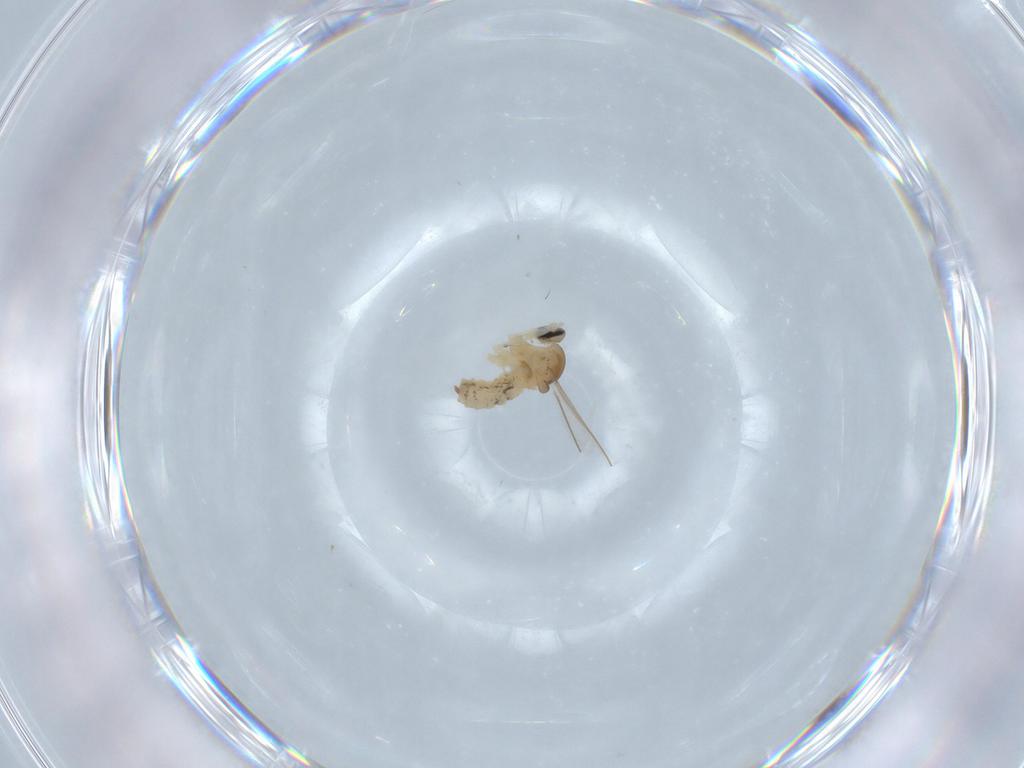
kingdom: Animalia
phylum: Arthropoda
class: Insecta
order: Diptera
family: Cecidomyiidae
